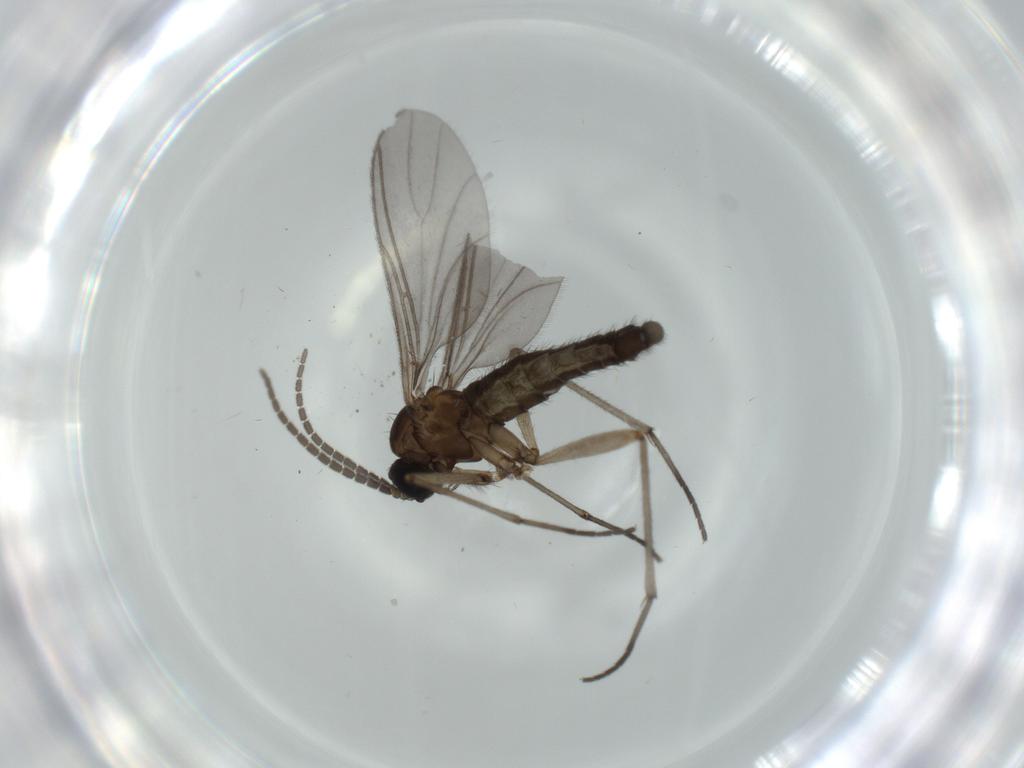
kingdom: Animalia
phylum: Arthropoda
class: Insecta
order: Diptera
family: Sciaridae
